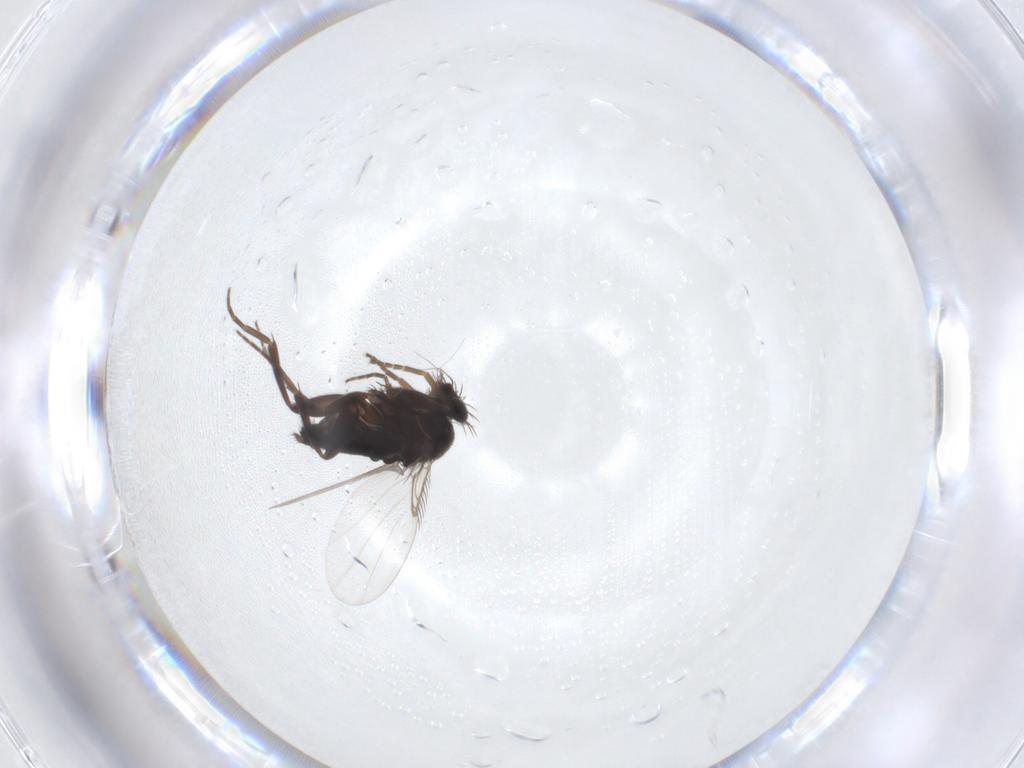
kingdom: Animalia
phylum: Arthropoda
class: Insecta
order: Diptera
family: Phoridae
